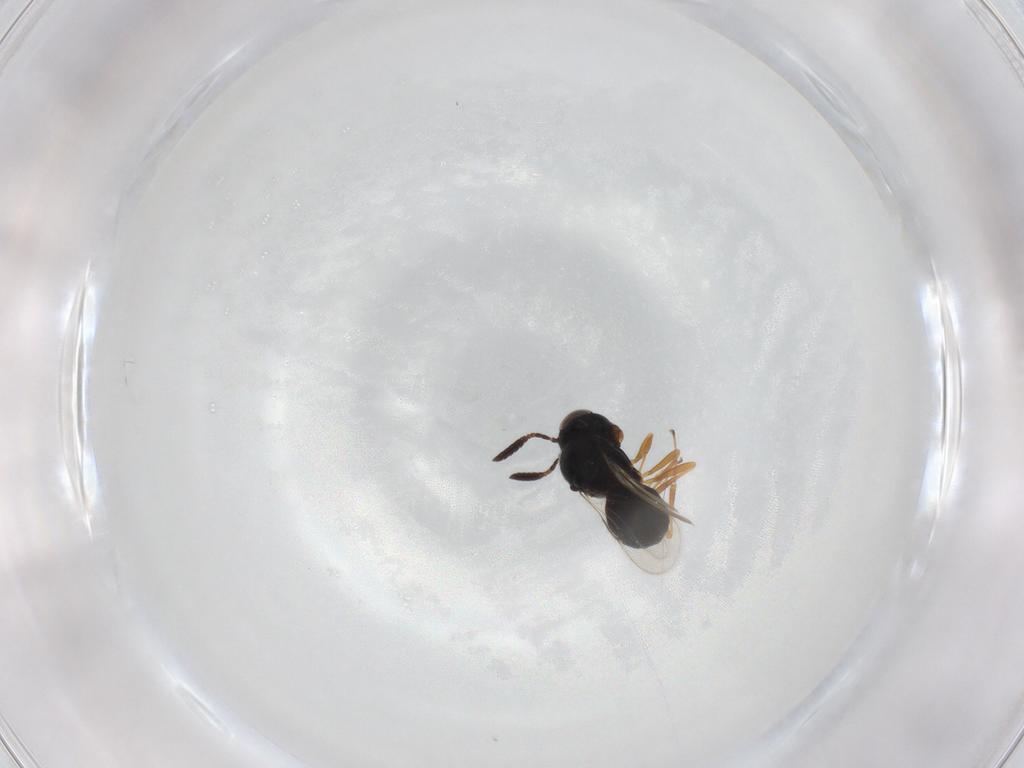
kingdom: Animalia
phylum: Arthropoda
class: Insecta
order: Hymenoptera
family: Scelionidae
